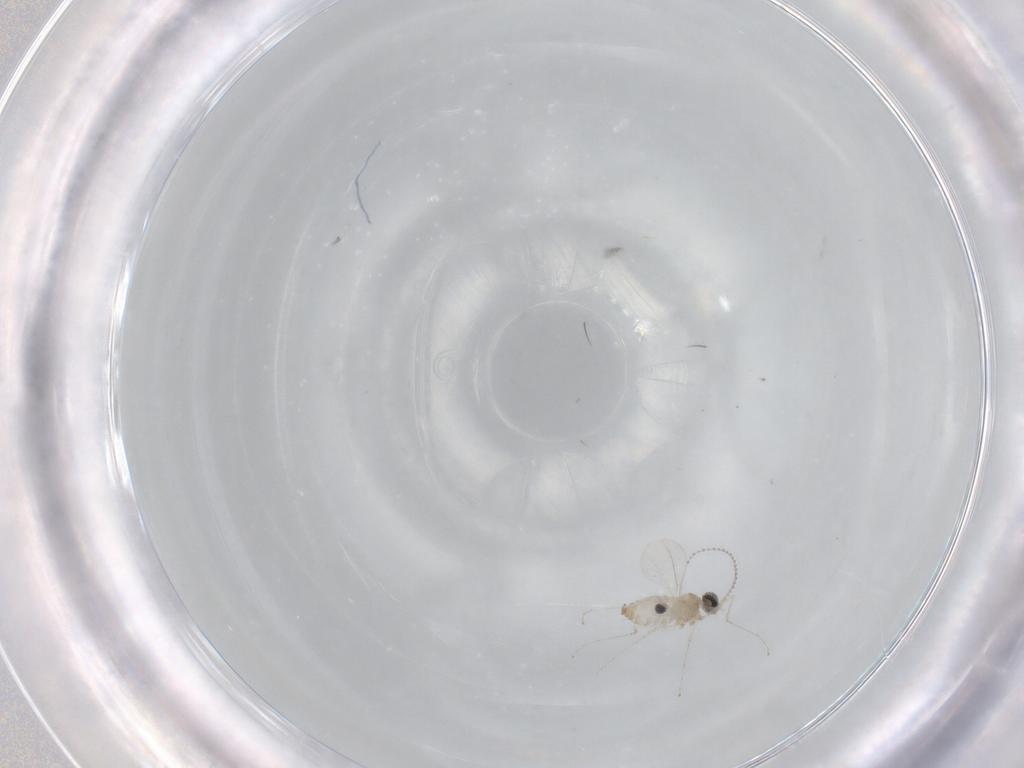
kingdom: Animalia
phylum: Arthropoda
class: Insecta
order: Diptera
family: Cecidomyiidae
